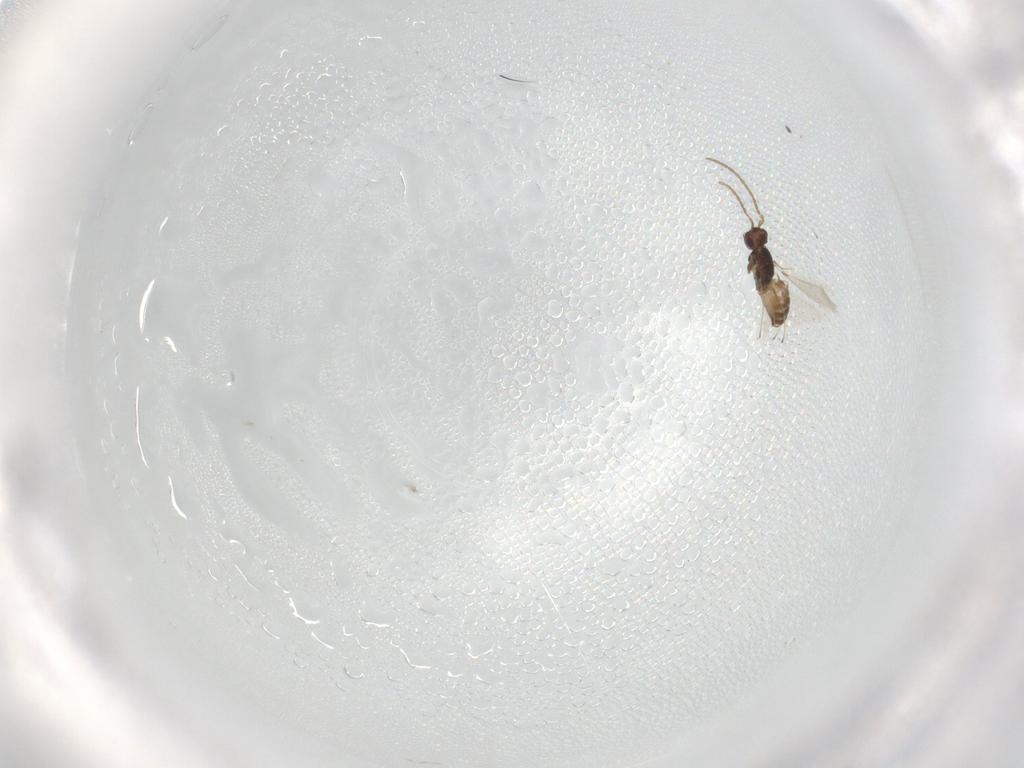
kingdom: Animalia
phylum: Arthropoda
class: Insecta
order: Hymenoptera
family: Mymaridae
